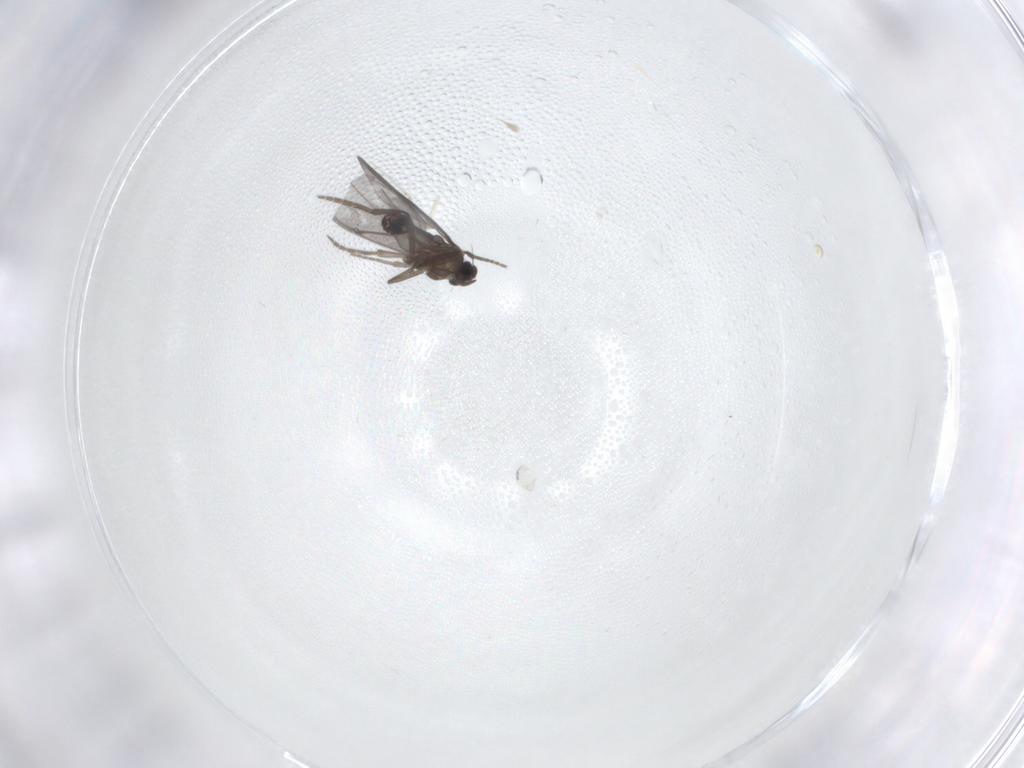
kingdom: Animalia
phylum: Arthropoda
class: Insecta
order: Diptera
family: Phoridae
